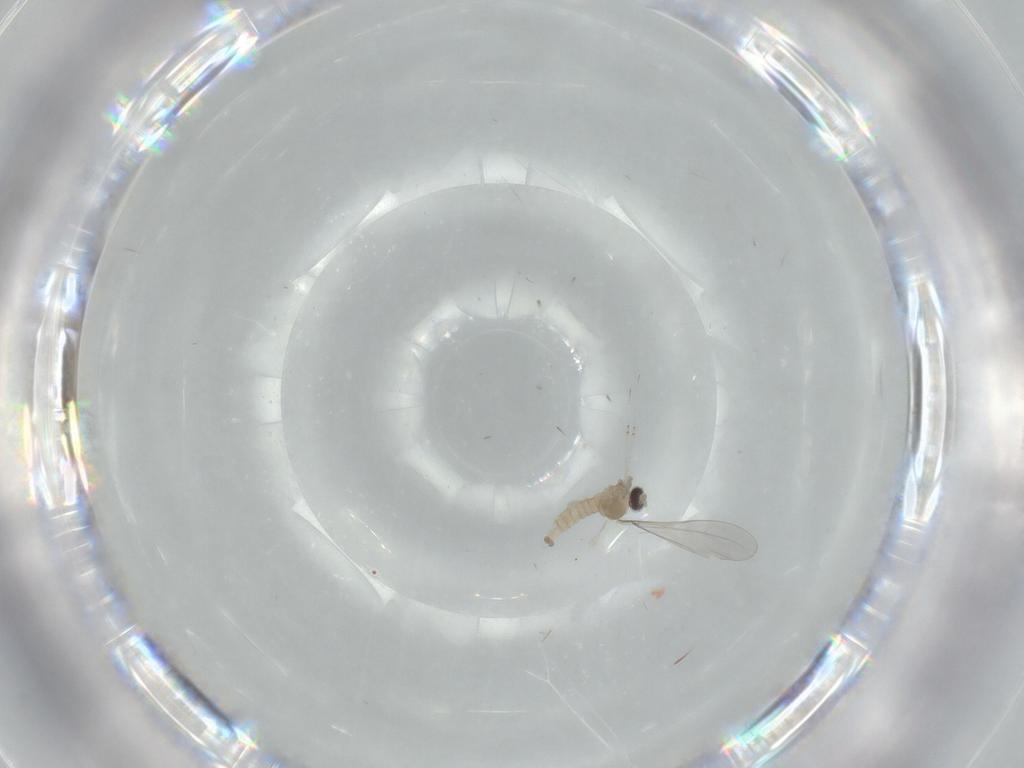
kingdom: Animalia
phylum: Arthropoda
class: Insecta
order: Diptera
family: Cecidomyiidae
